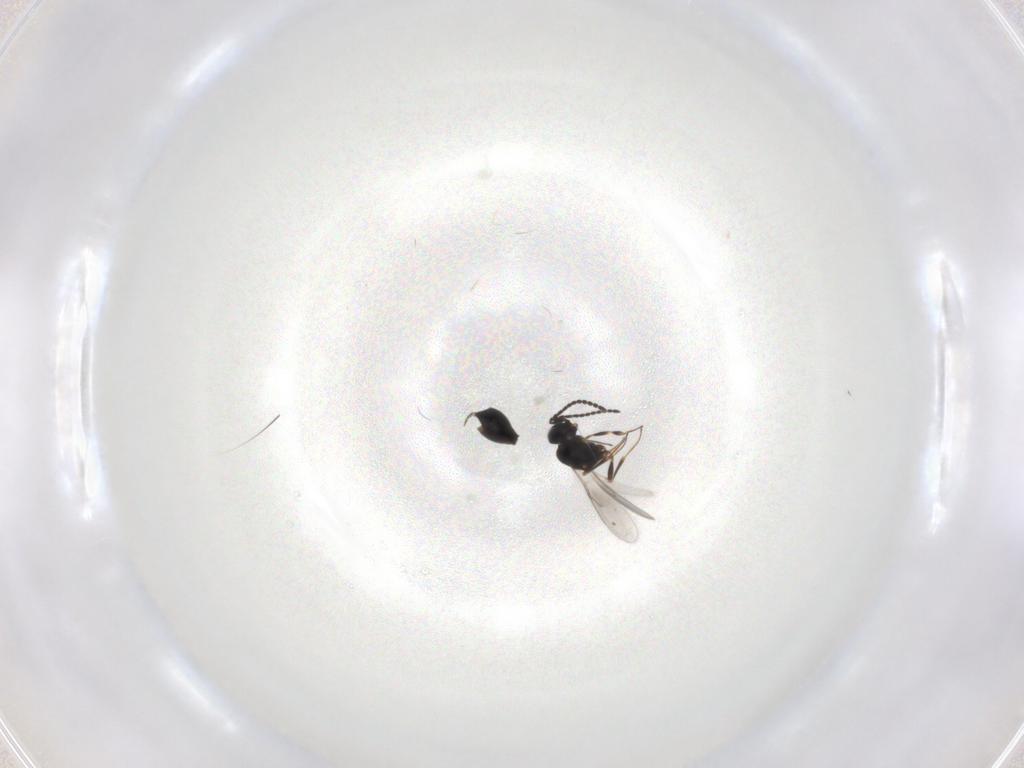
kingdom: Animalia
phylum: Arthropoda
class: Insecta
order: Hymenoptera
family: Scelionidae
